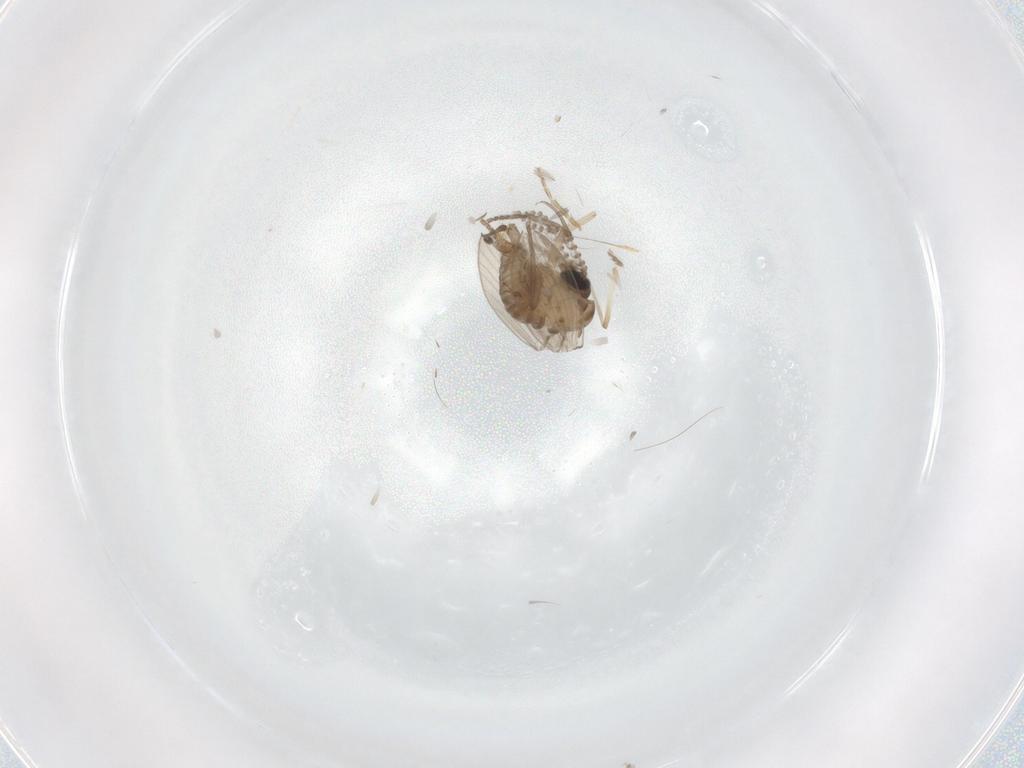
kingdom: Animalia
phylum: Arthropoda
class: Insecta
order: Diptera
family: Psychodidae
